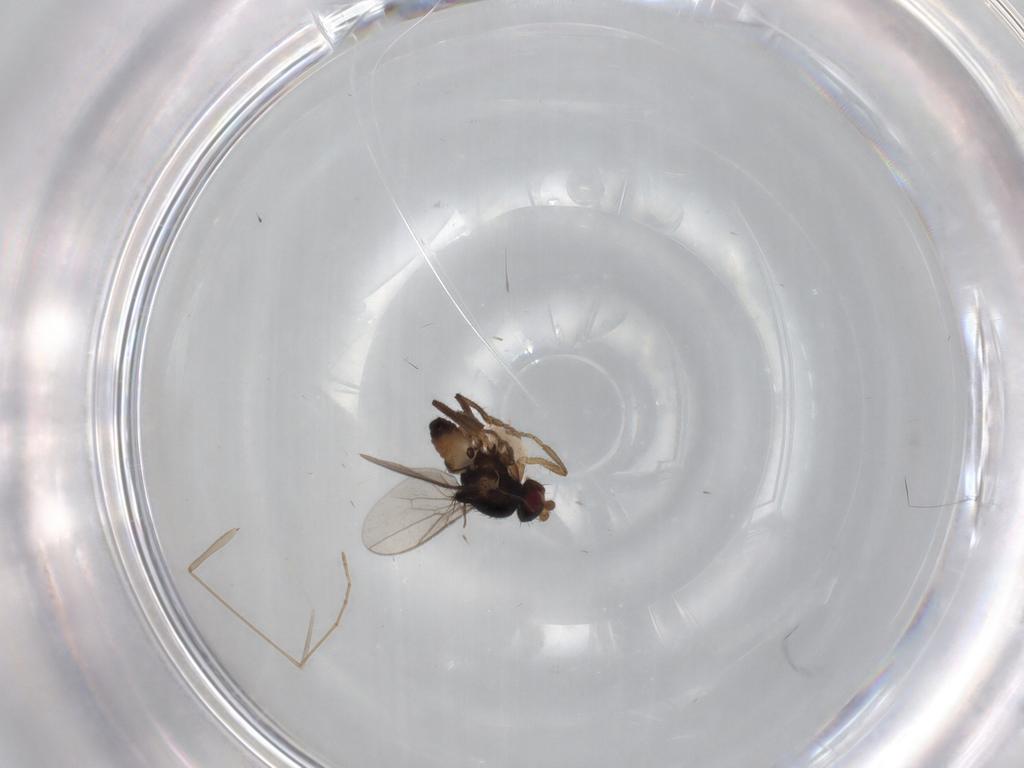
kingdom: Animalia
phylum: Arthropoda
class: Insecta
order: Diptera
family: Sphaeroceridae
